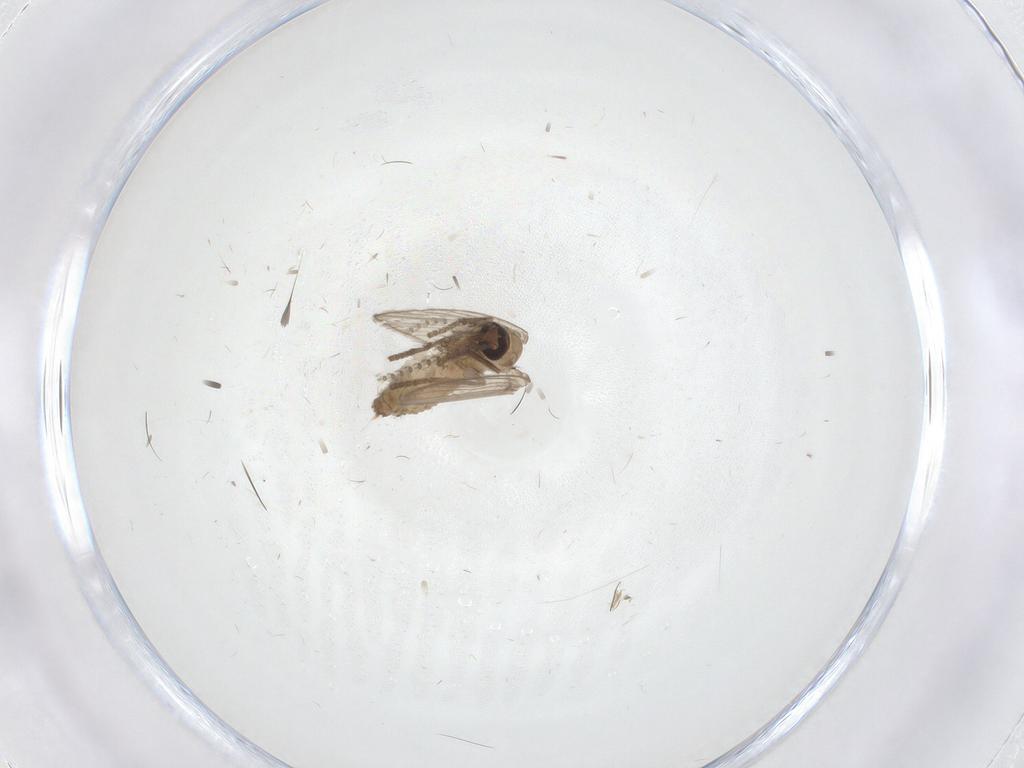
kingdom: Animalia
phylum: Arthropoda
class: Insecta
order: Diptera
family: Psychodidae
